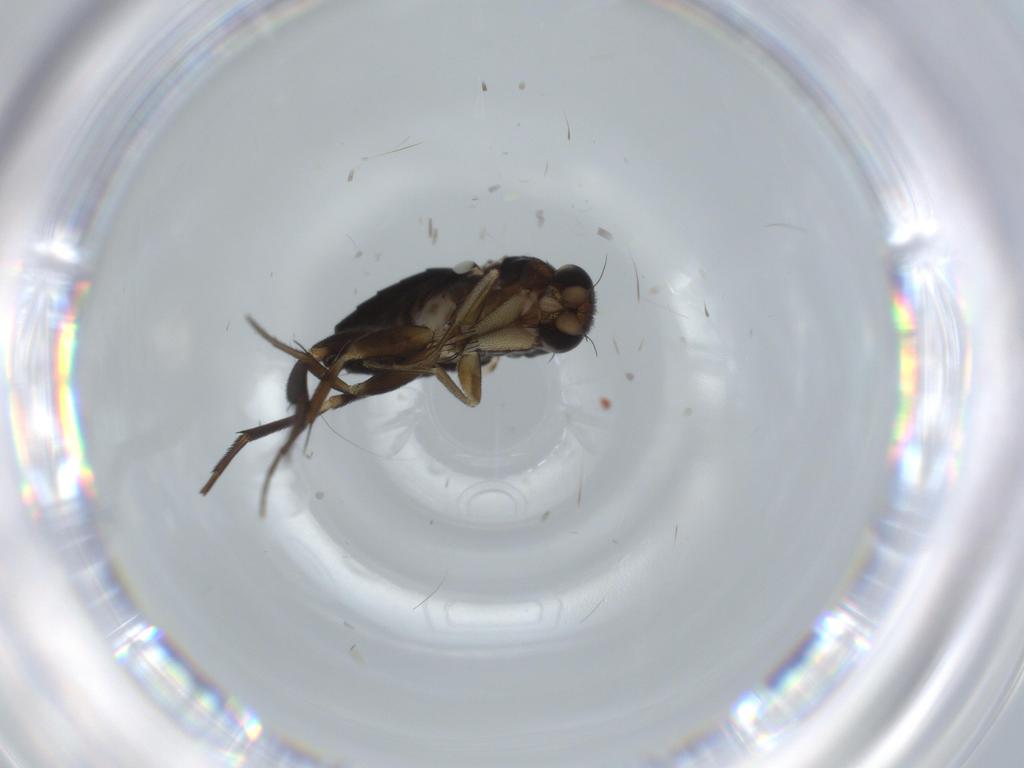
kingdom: Animalia
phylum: Arthropoda
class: Insecta
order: Diptera
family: Phoridae
